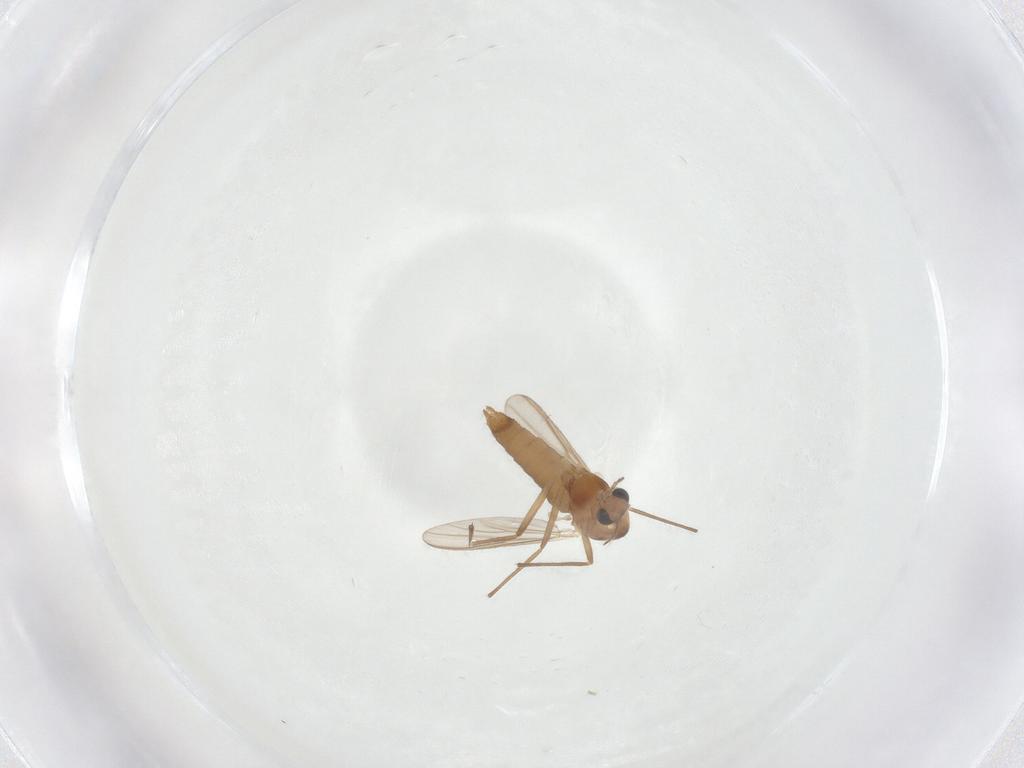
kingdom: Animalia
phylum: Arthropoda
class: Insecta
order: Diptera
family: Chironomidae
